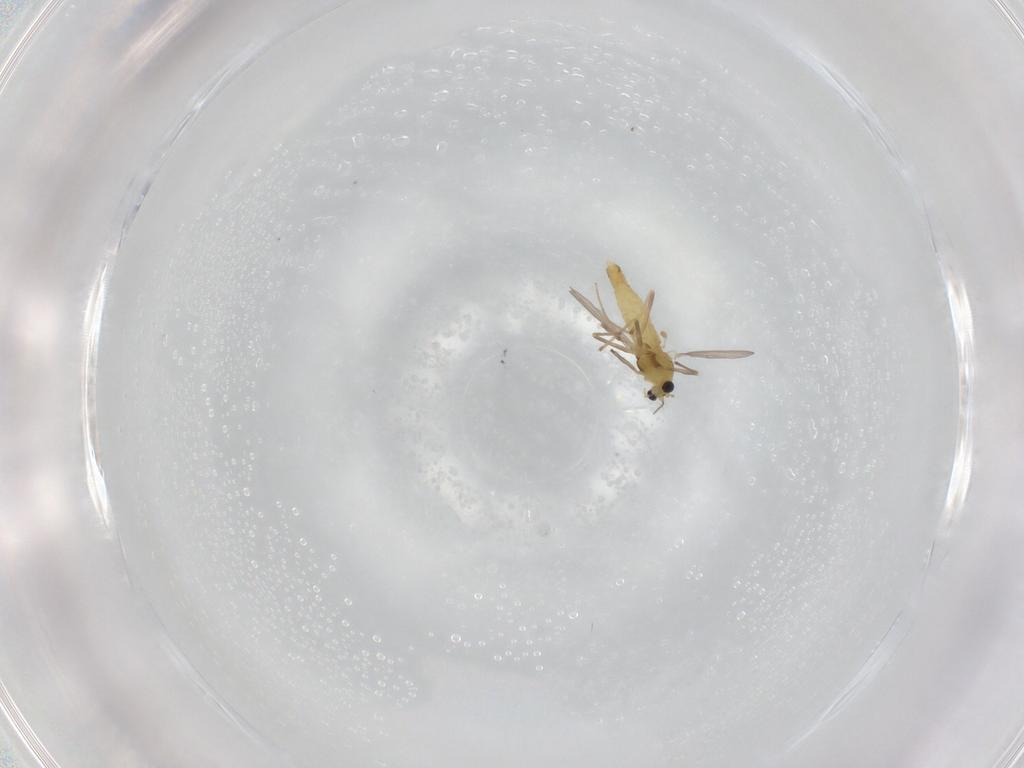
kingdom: Animalia
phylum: Arthropoda
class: Insecta
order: Diptera
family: Chironomidae
